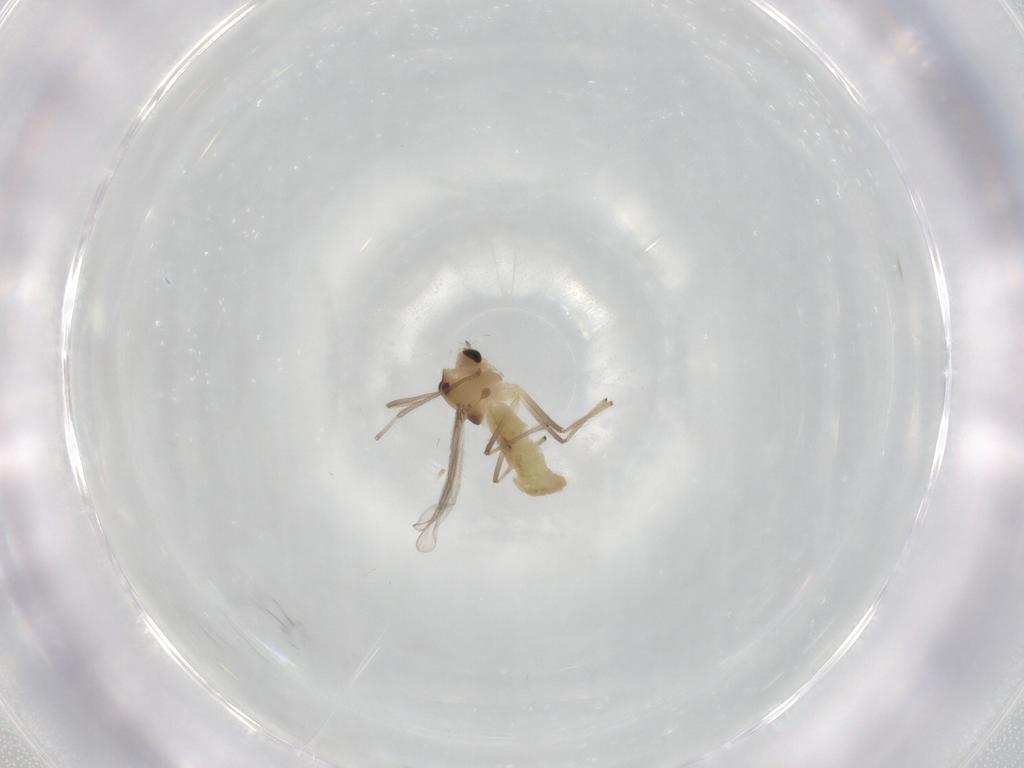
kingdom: Animalia
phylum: Arthropoda
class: Insecta
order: Diptera
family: Chironomidae
